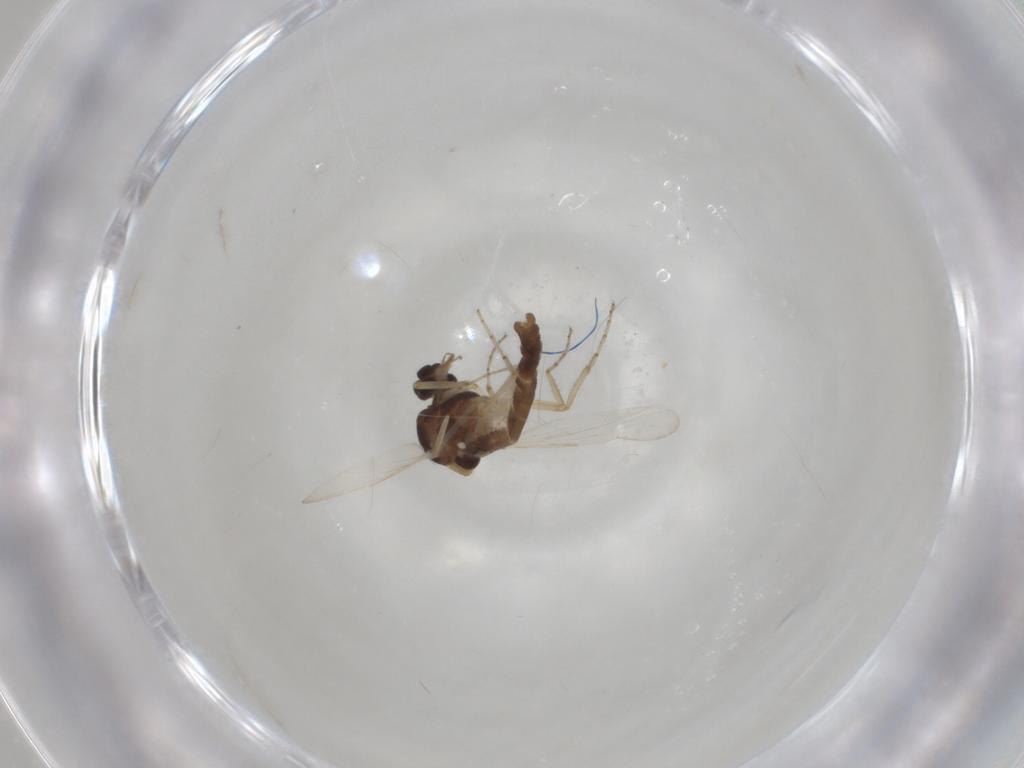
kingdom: Animalia
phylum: Arthropoda
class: Insecta
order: Diptera
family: Ceratopogonidae
